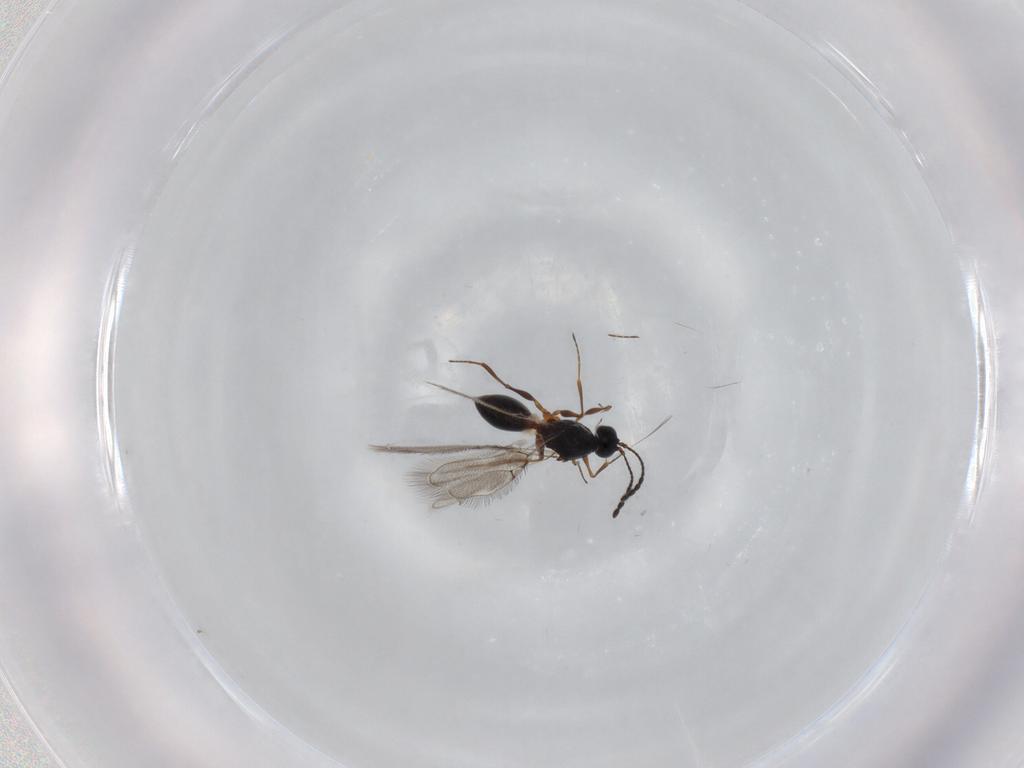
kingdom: Animalia
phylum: Arthropoda
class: Insecta
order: Hymenoptera
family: Figitidae
